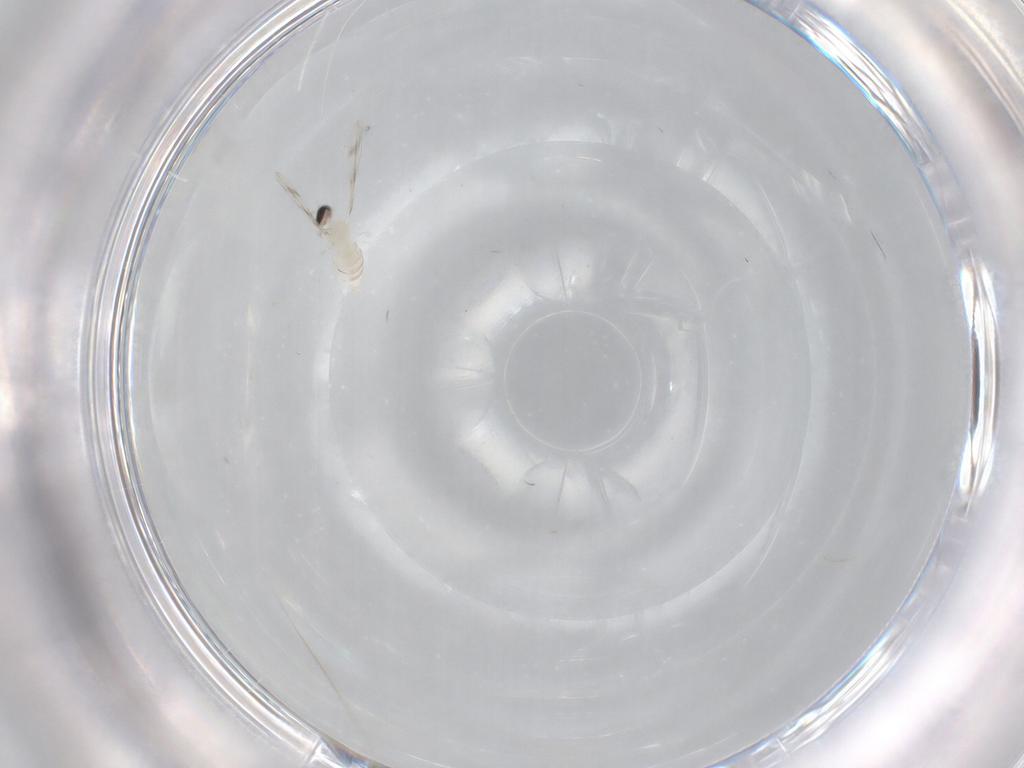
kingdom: Animalia
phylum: Arthropoda
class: Insecta
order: Diptera
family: Cecidomyiidae
